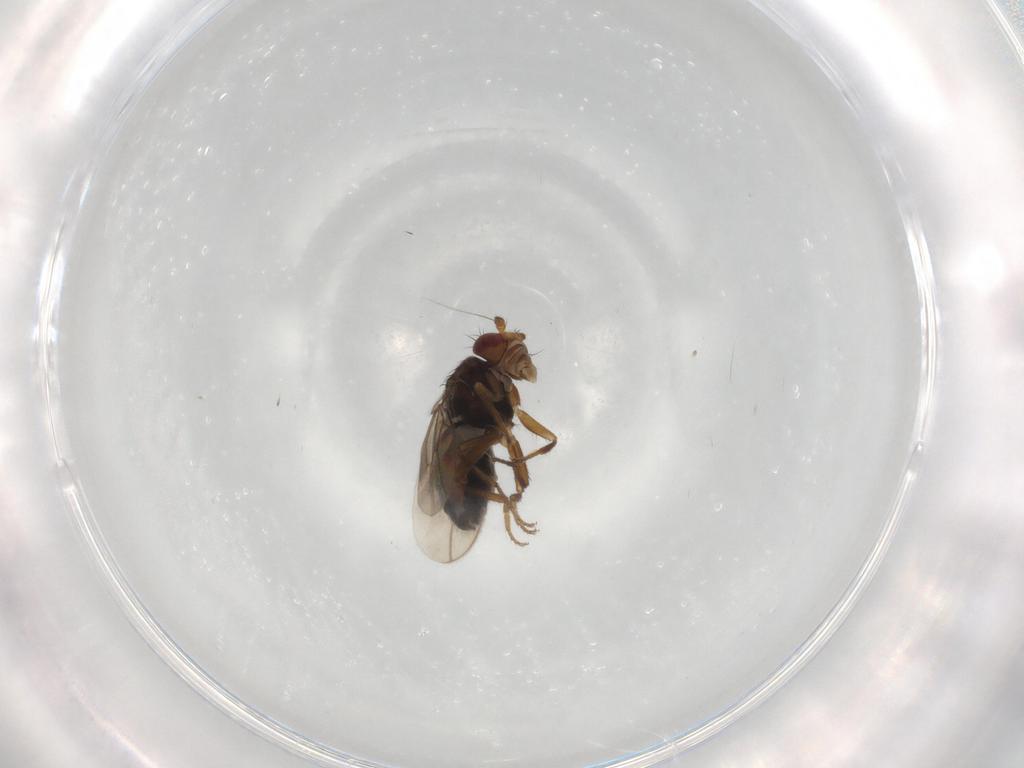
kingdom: Animalia
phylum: Arthropoda
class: Insecta
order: Diptera
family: Sphaeroceridae
